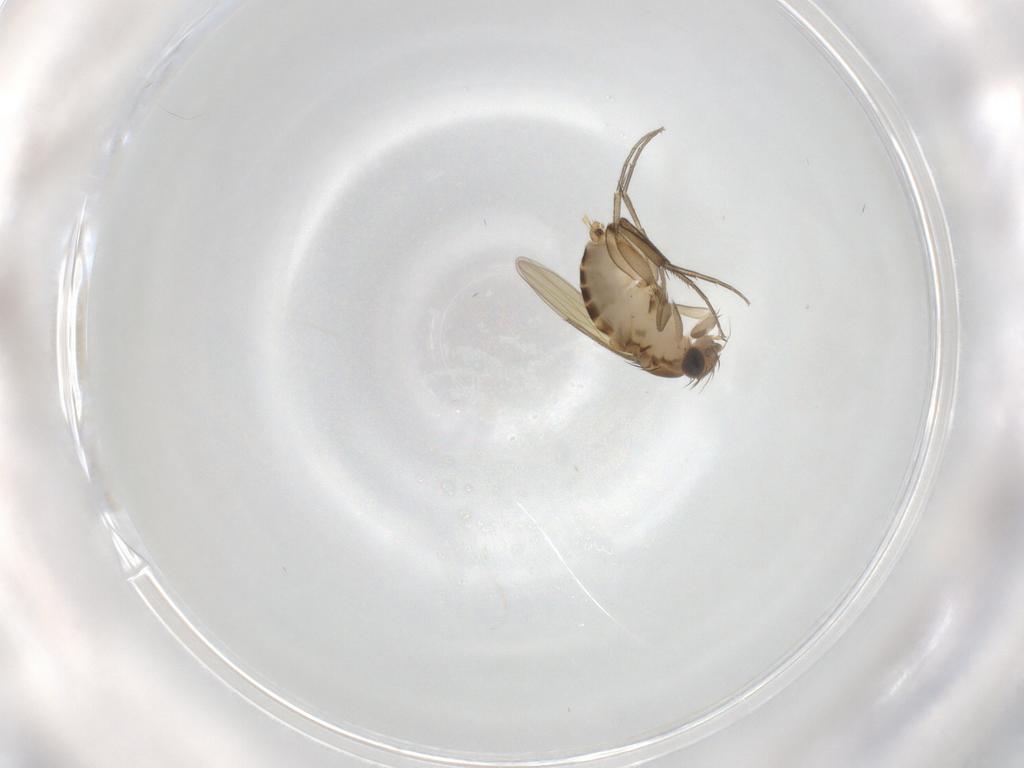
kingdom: Animalia
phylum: Arthropoda
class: Insecta
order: Diptera
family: Phoridae
